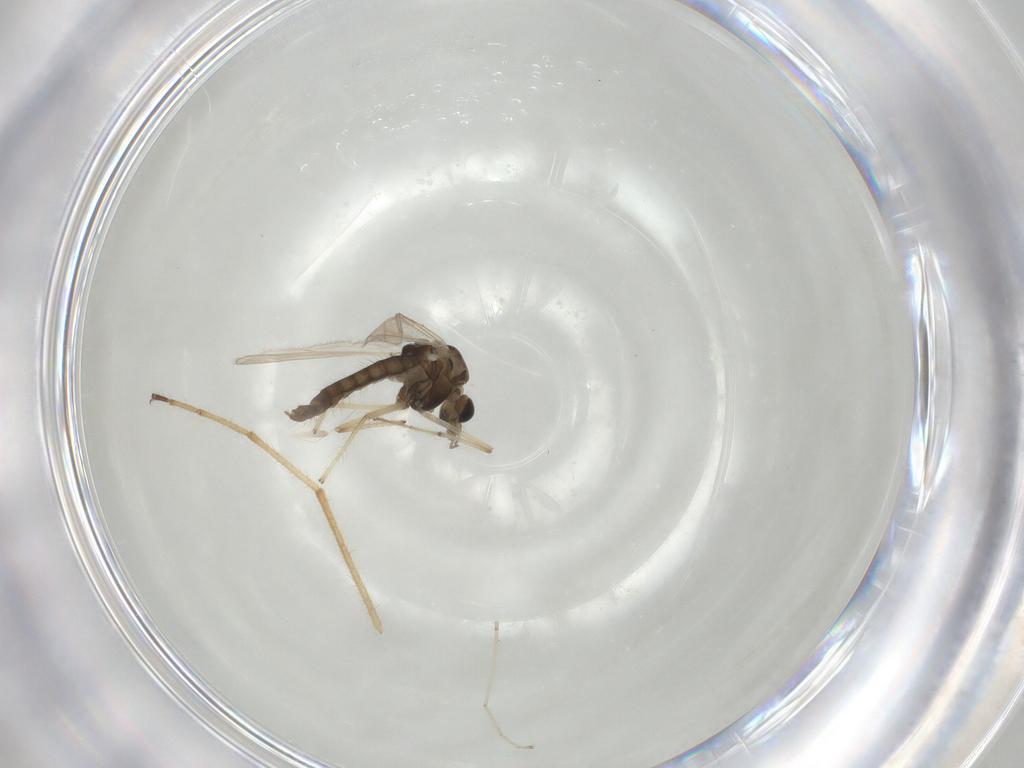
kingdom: Animalia
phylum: Arthropoda
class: Insecta
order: Diptera
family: Chironomidae
